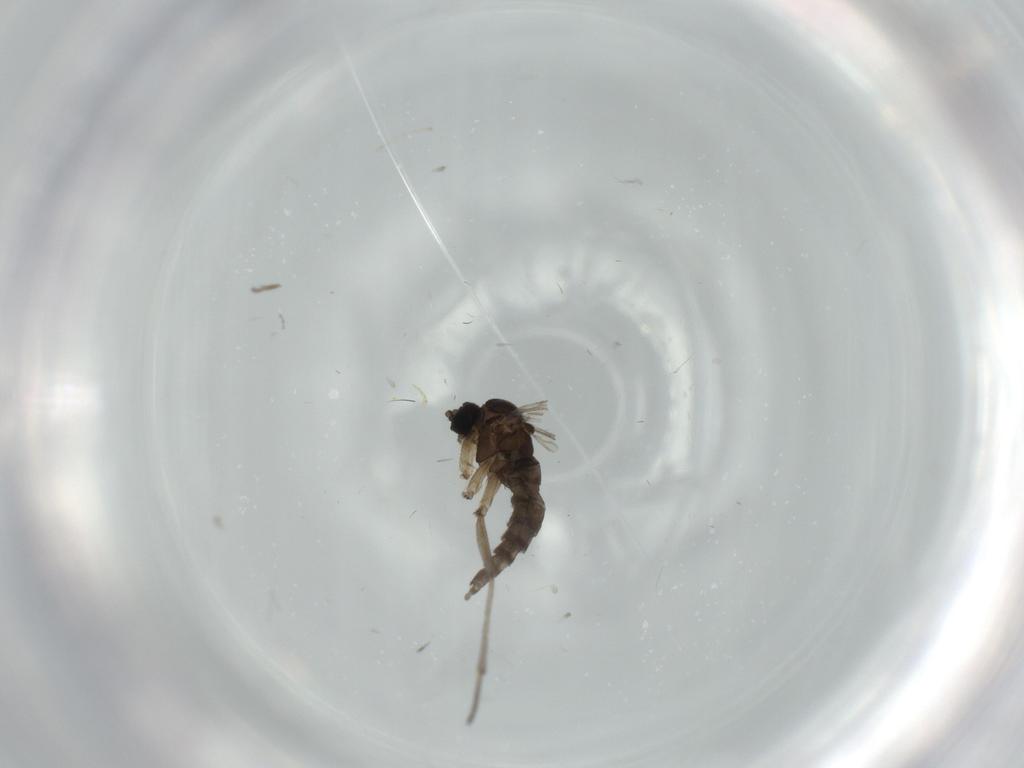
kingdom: Animalia
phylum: Arthropoda
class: Insecta
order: Diptera
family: Sciaridae
